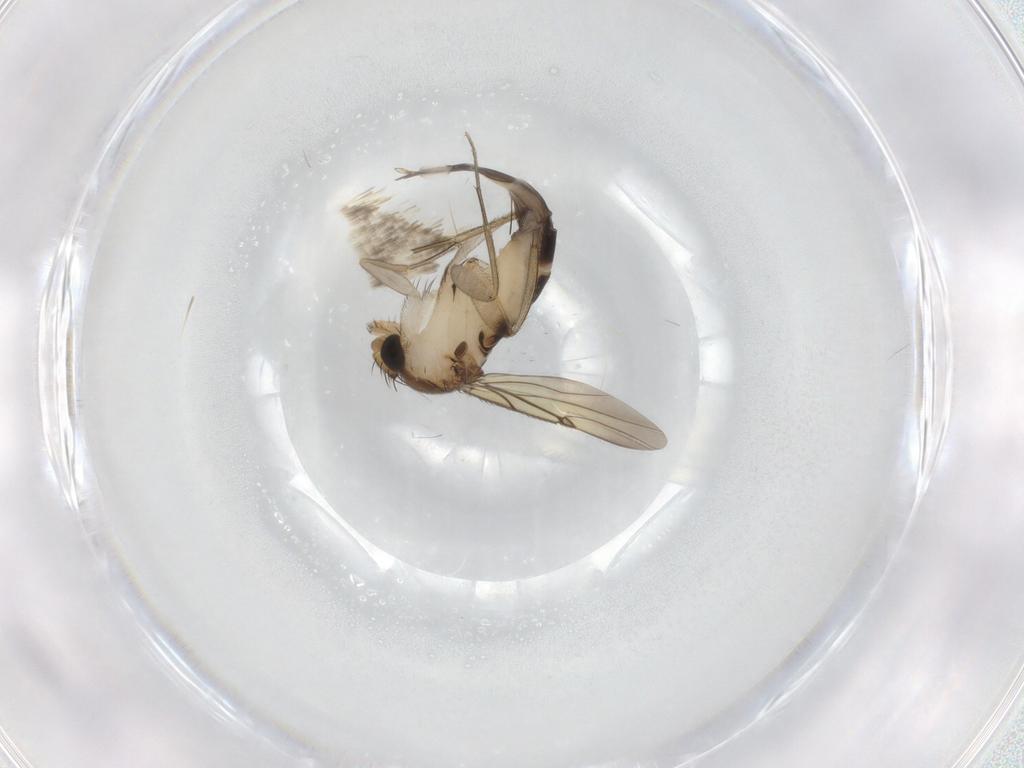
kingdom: Animalia
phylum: Arthropoda
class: Insecta
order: Diptera
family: Phoridae
